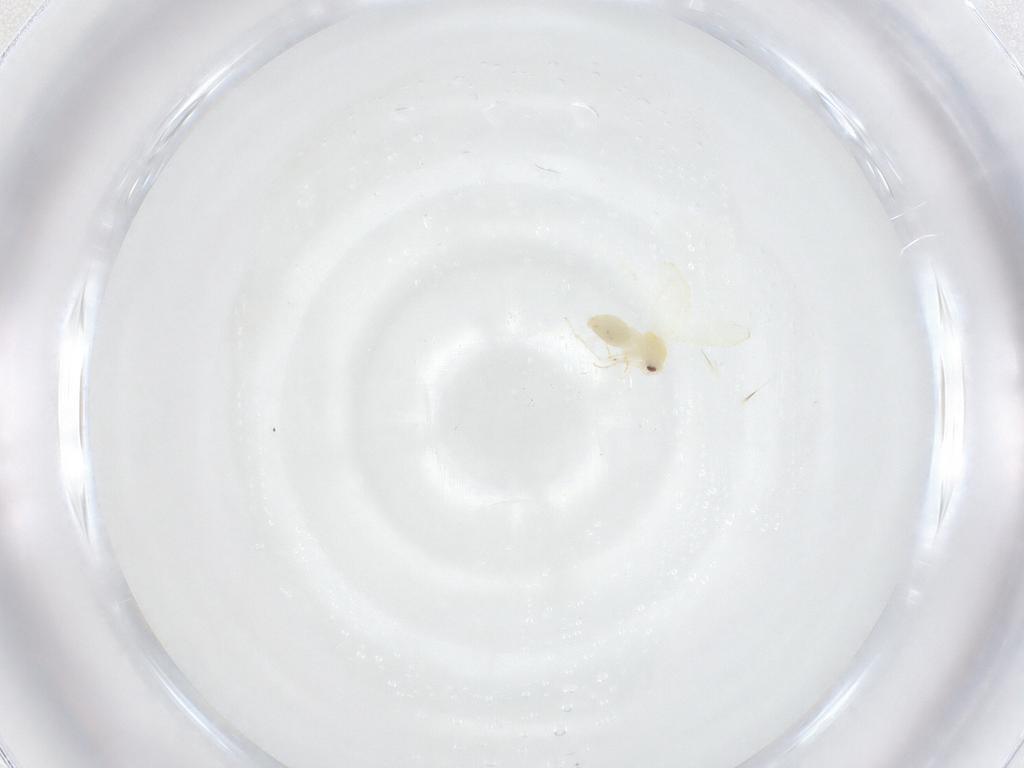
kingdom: Animalia
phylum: Arthropoda
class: Insecta
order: Hemiptera
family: Aleyrodidae
